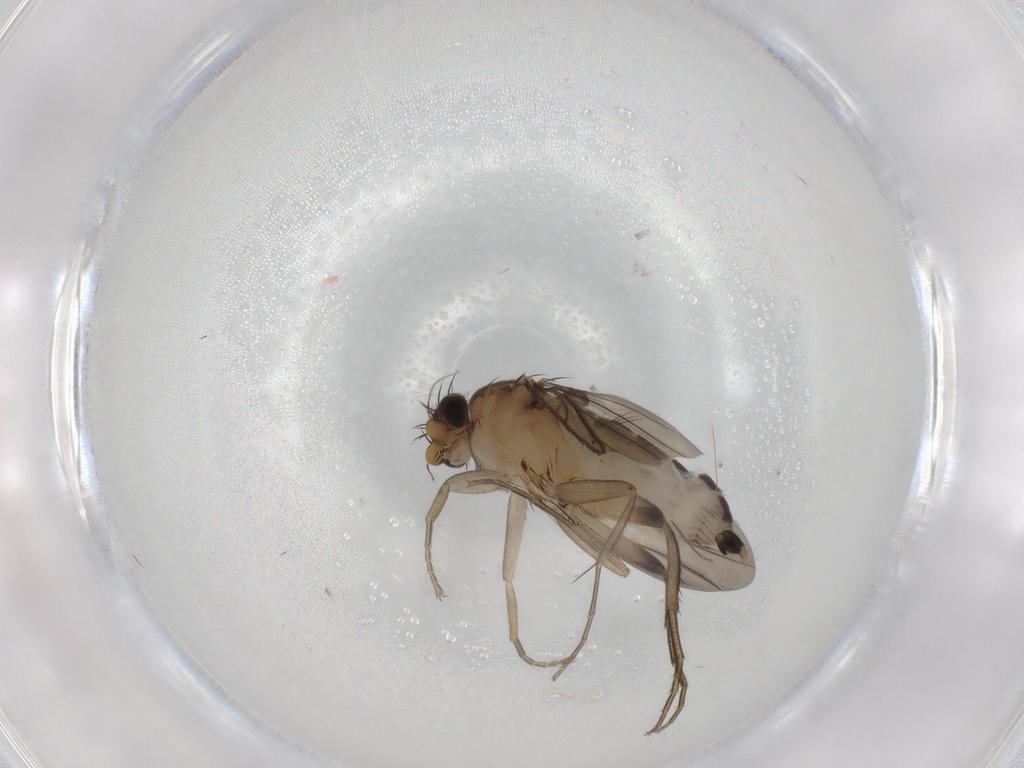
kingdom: Animalia
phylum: Arthropoda
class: Insecta
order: Diptera
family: Phoridae
